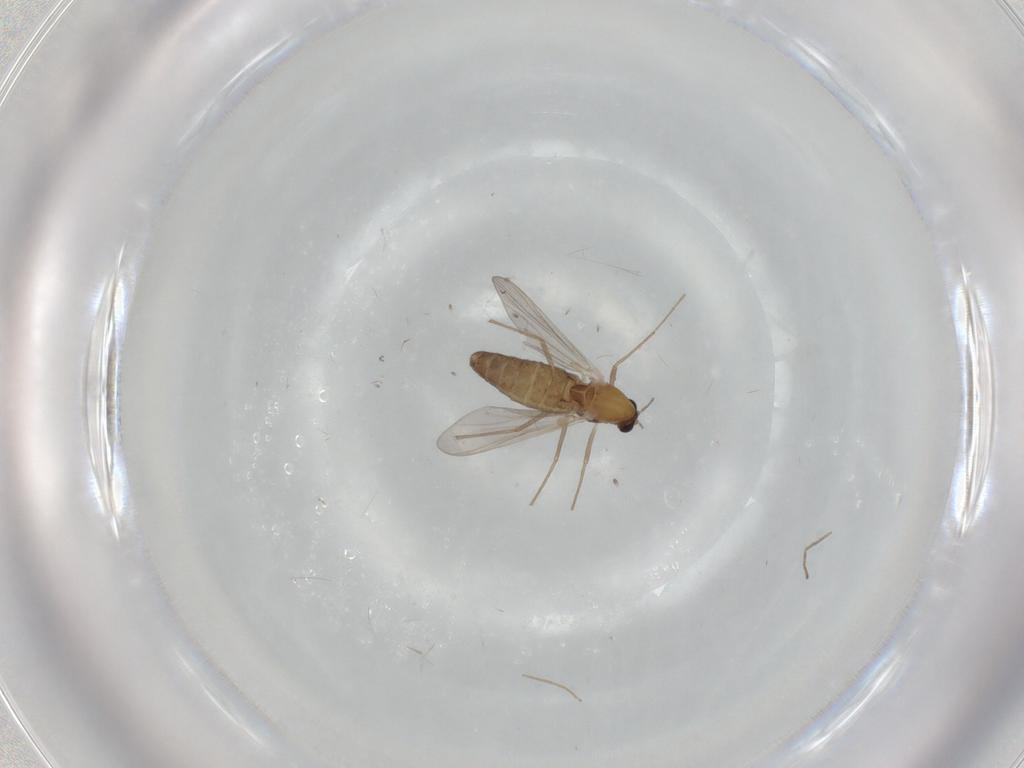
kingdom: Animalia
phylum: Arthropoda
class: Insecta
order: Diptera
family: Chironomidae
